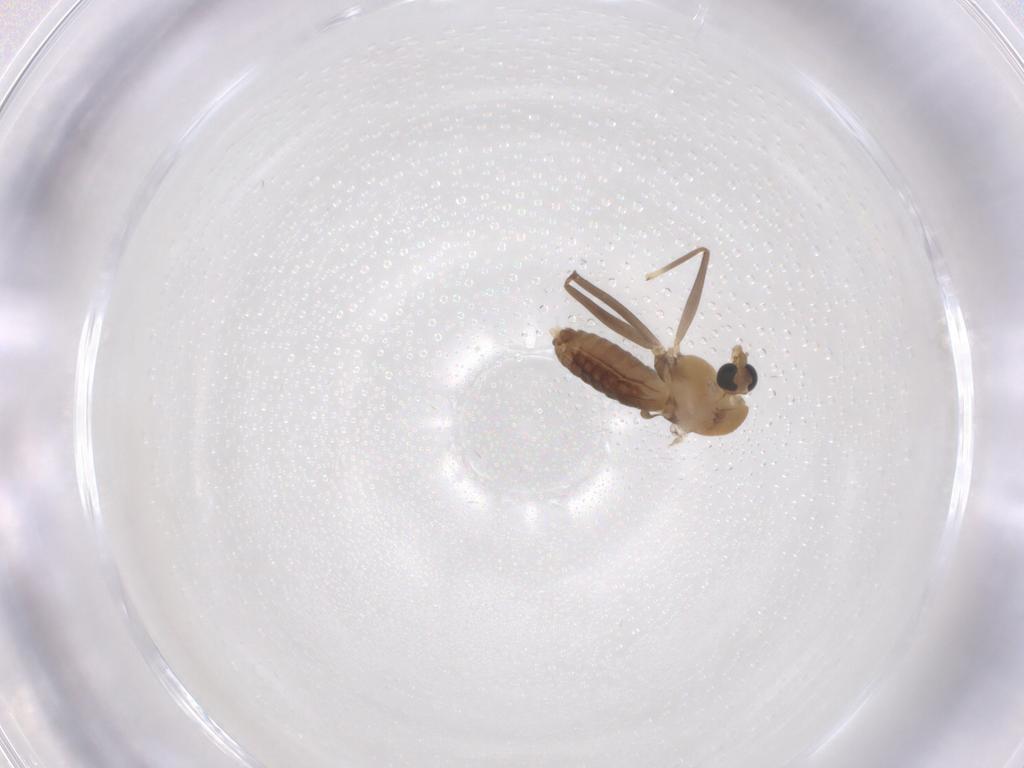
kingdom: Animalia
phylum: Arthropoda
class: Insecta
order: Diptera
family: Chironomidae
